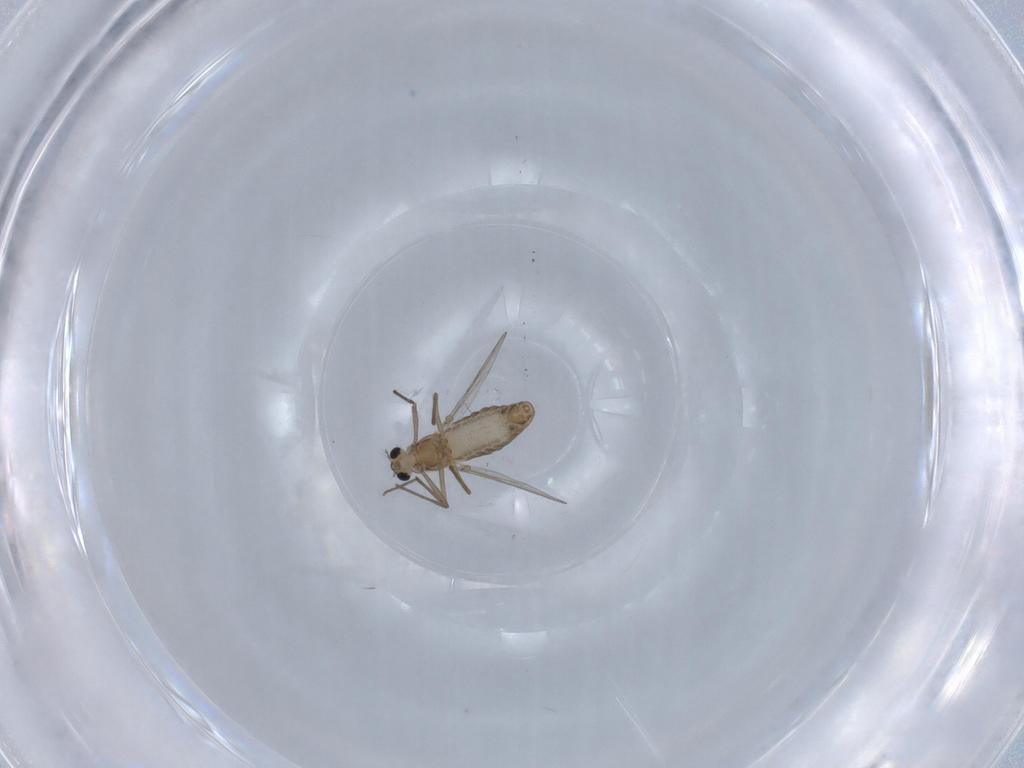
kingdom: Animalia
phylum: Arthropoda
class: Insecta
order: Diptera
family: Chironomidae
